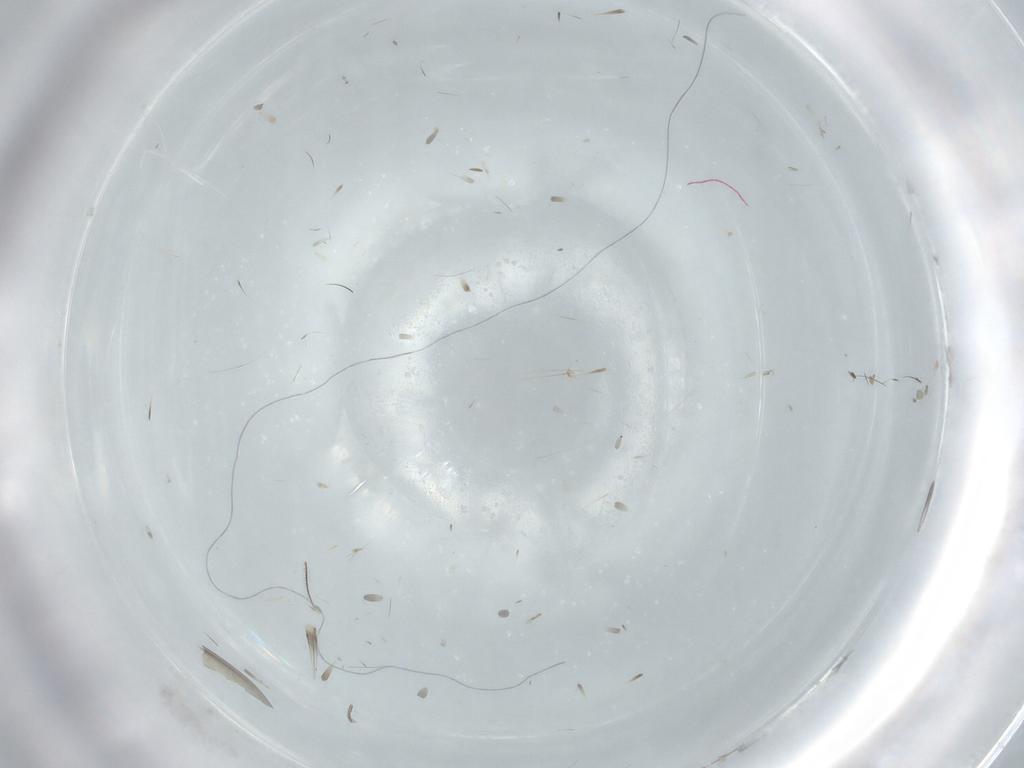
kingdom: Animalia
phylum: Arthropoda
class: Insecta
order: Diptera
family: Cecidomyiidae
